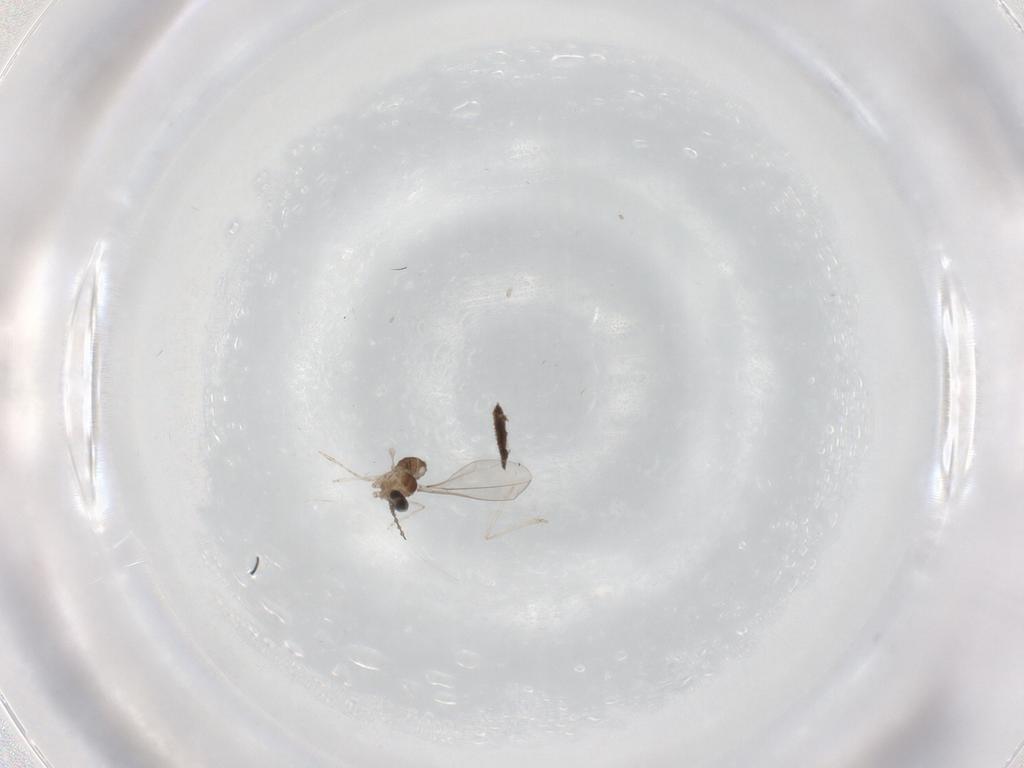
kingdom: Animalia
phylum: Arthropoda
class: Insecta
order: Diptera
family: Cecidomyiidae
